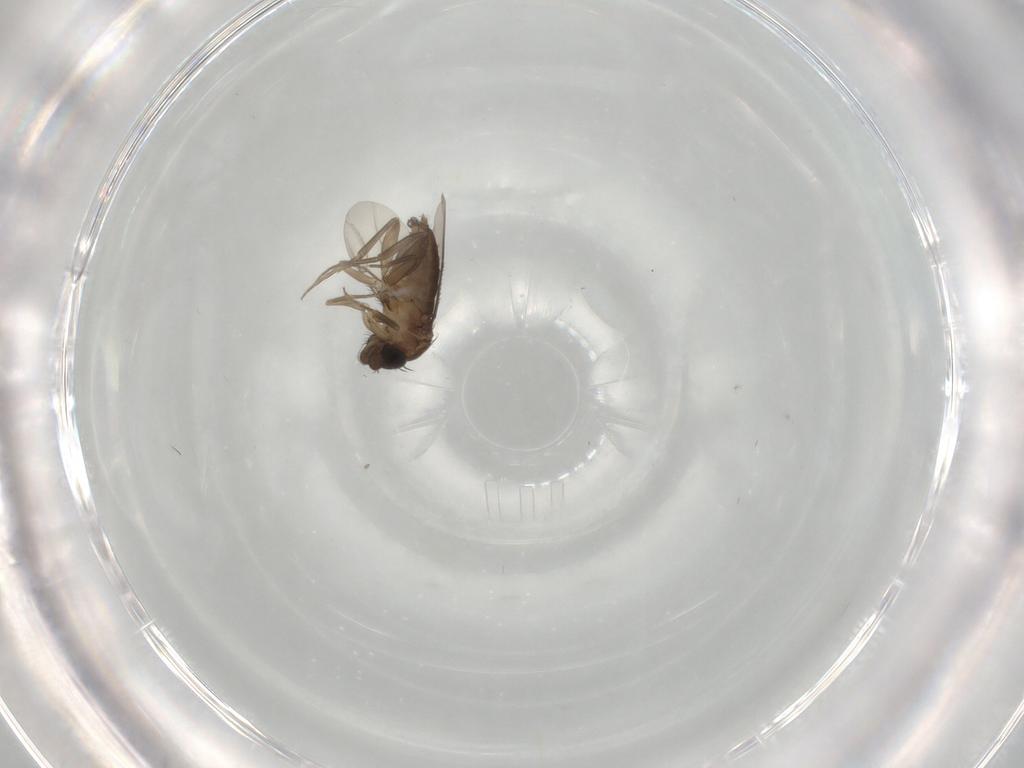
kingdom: Animalia
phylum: Arthropoda
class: Insecta
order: Diptera
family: Phoridae
